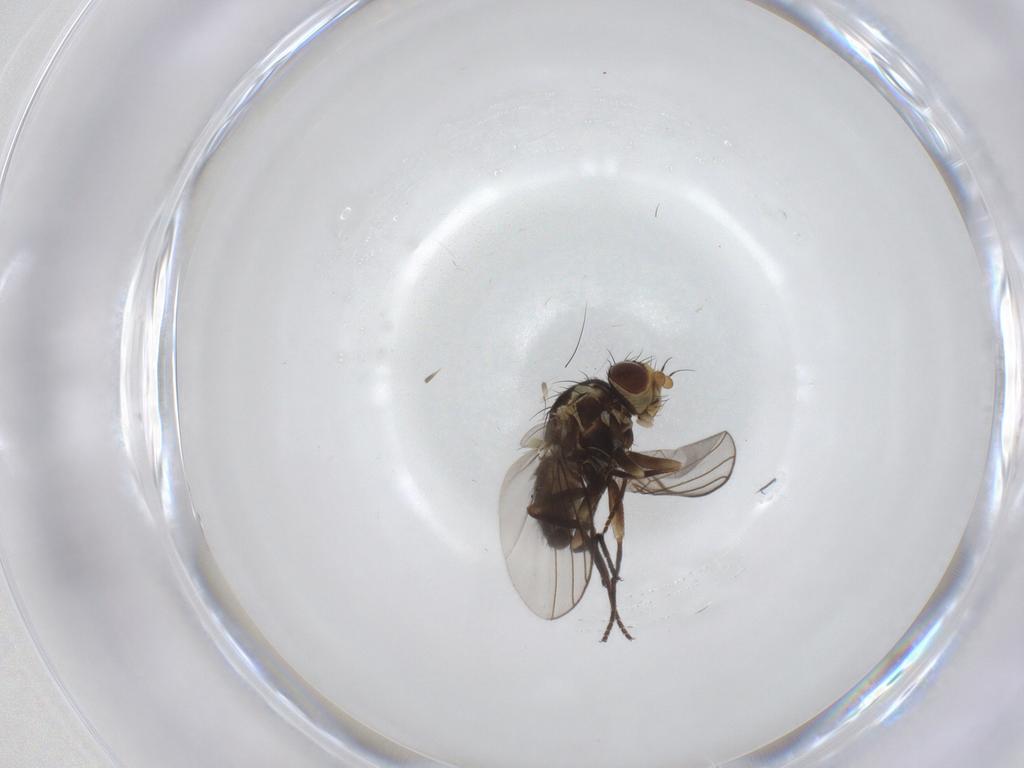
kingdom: Animalia
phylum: Arthropoda
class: Insecta
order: Diptera
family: Agromyzidae
